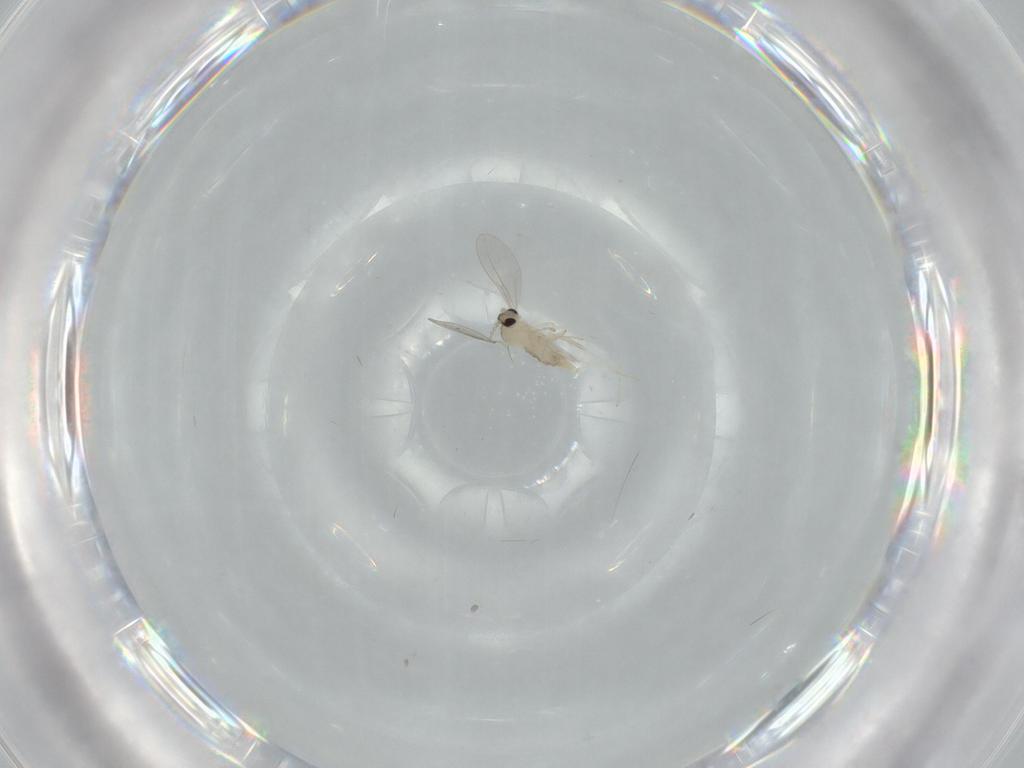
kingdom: Animalia
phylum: Arthropoda
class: Insecta
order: Diptera
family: Cecidomyiidae
